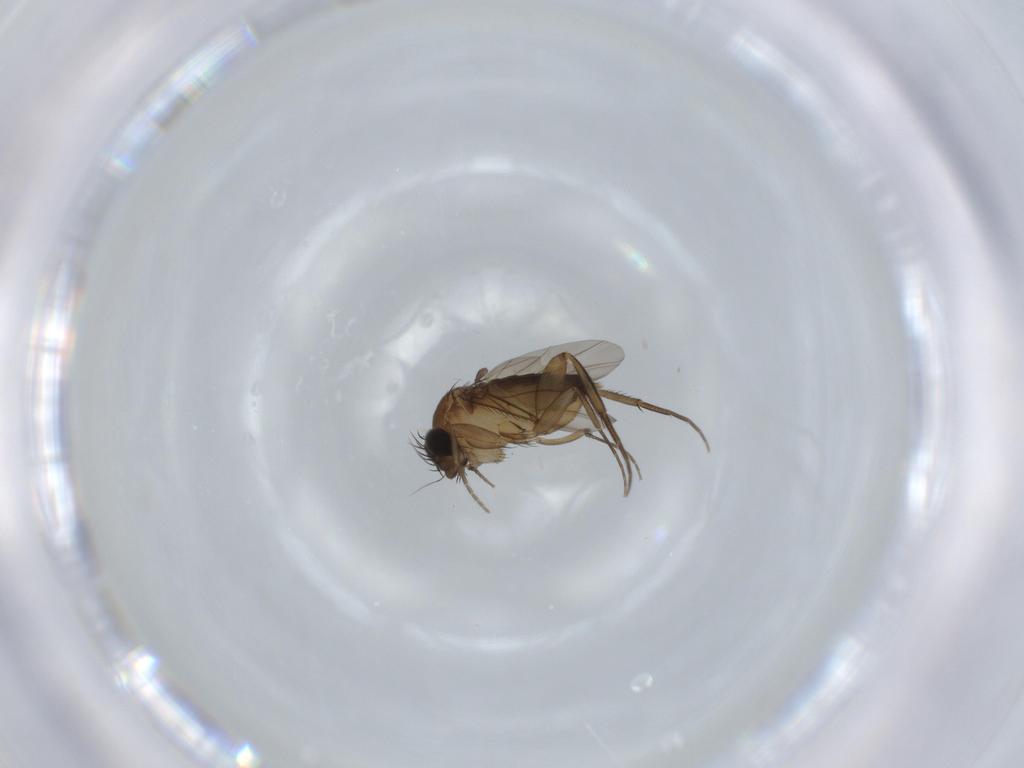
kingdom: Animalia
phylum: Arthropoda
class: Insecta
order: Diptera
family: Phoridae
